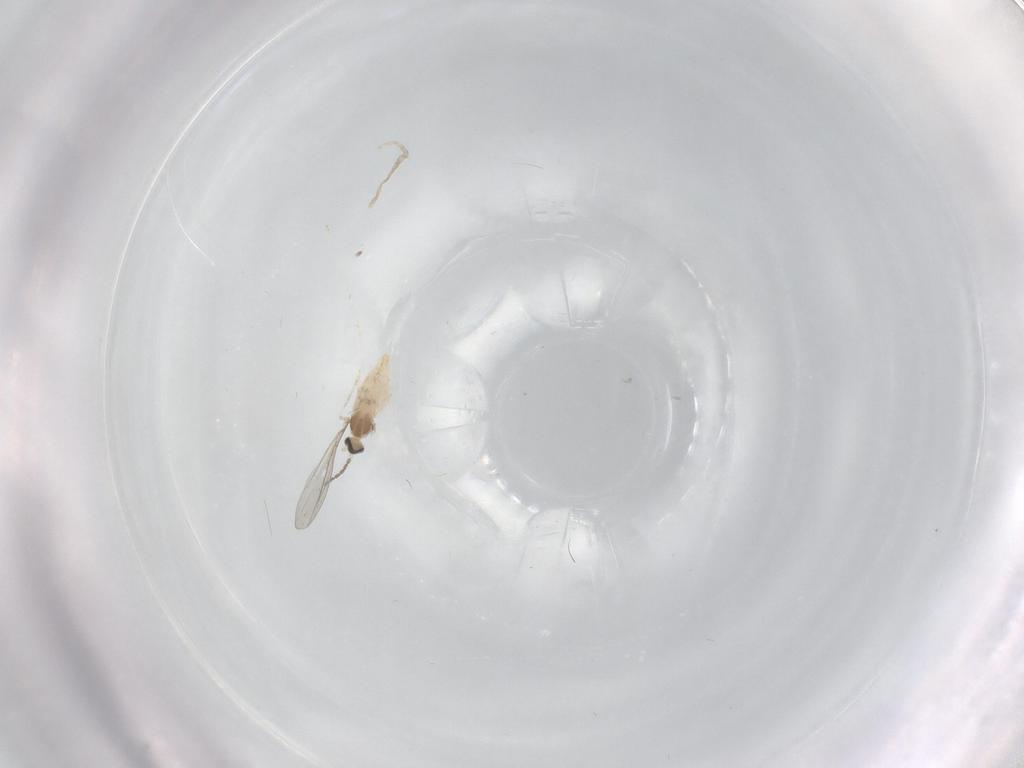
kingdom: Animalia
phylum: Arthropoda
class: Insecta
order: Diptera
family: Cecidomyiidae
